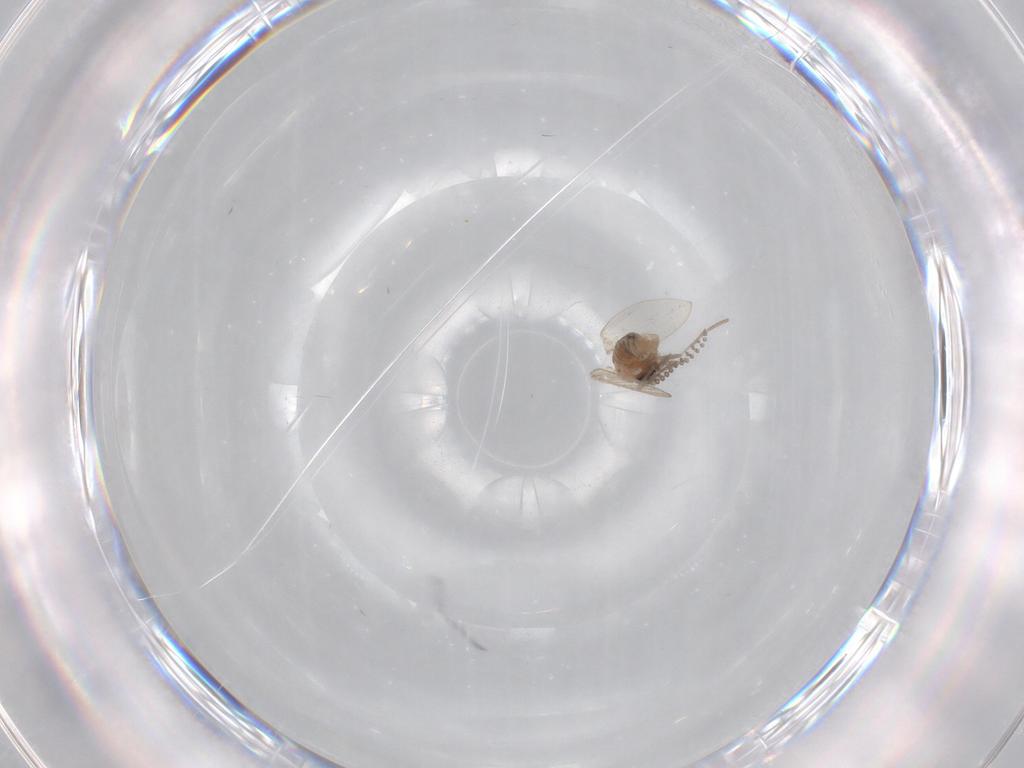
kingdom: Animalia
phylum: Arthropoda
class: Insecta
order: Diptera
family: Psychodidae
